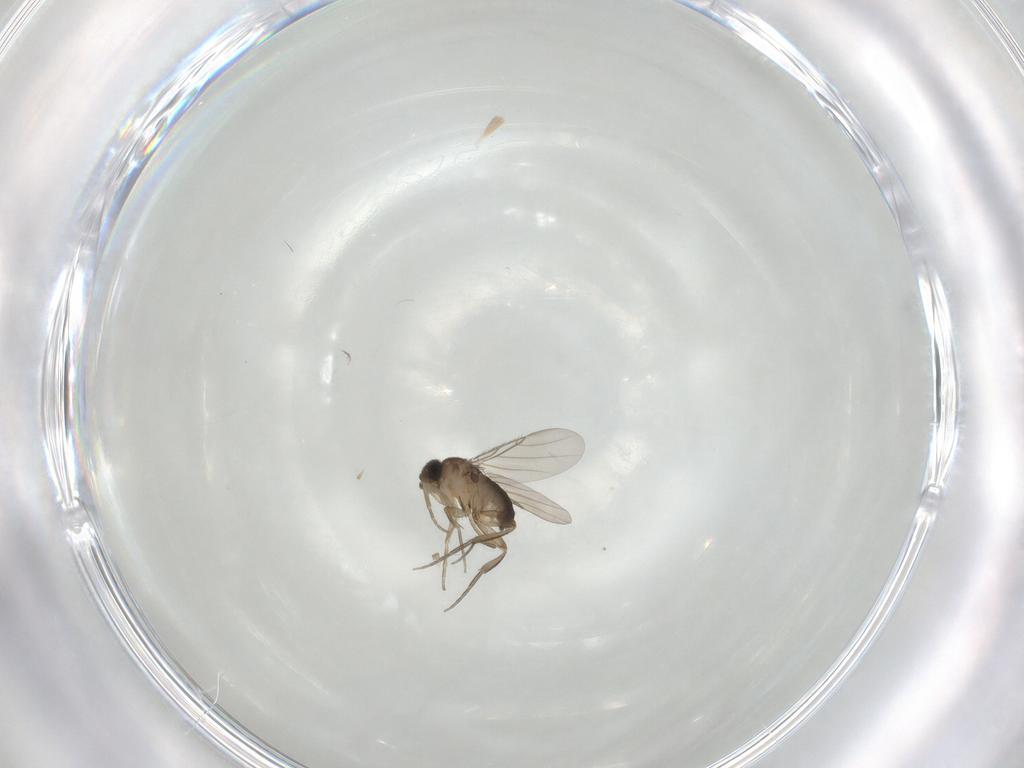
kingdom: Animalia
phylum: Arthropoda
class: Insecta
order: Diptera
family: Phoridae
